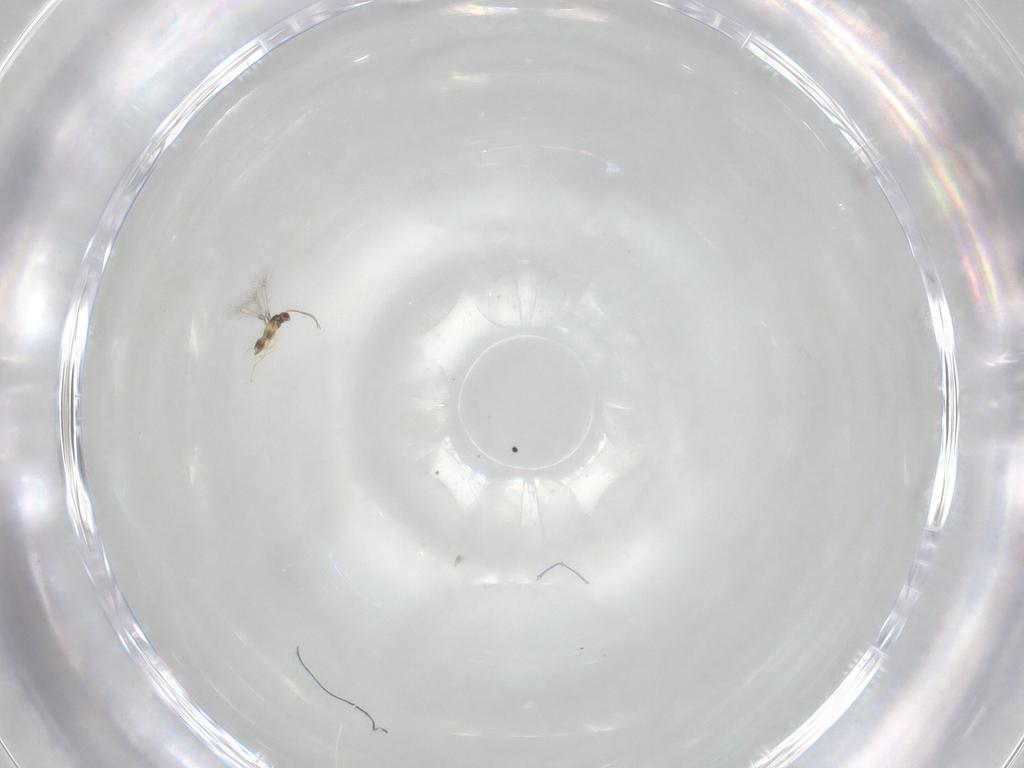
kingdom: Animalia
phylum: Arthropoda
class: Insecta
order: Hymenoptera
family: Mymaridae
